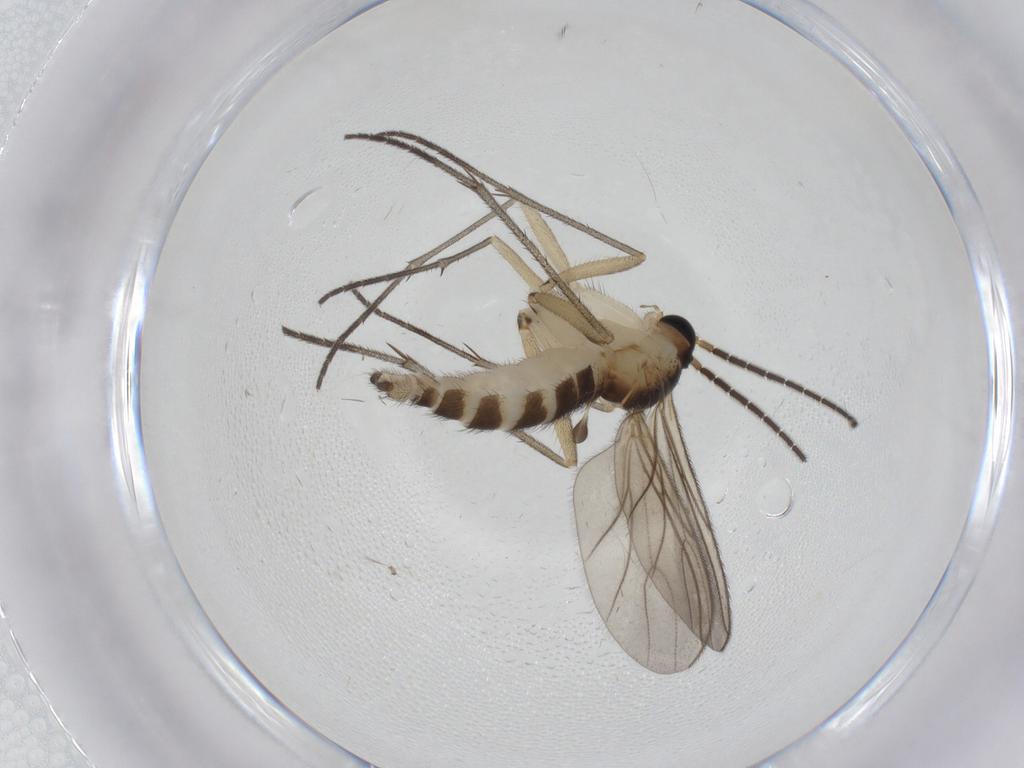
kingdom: Animalia
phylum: Arthropoda
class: Insecta
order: Diptera
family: Sciaridae
